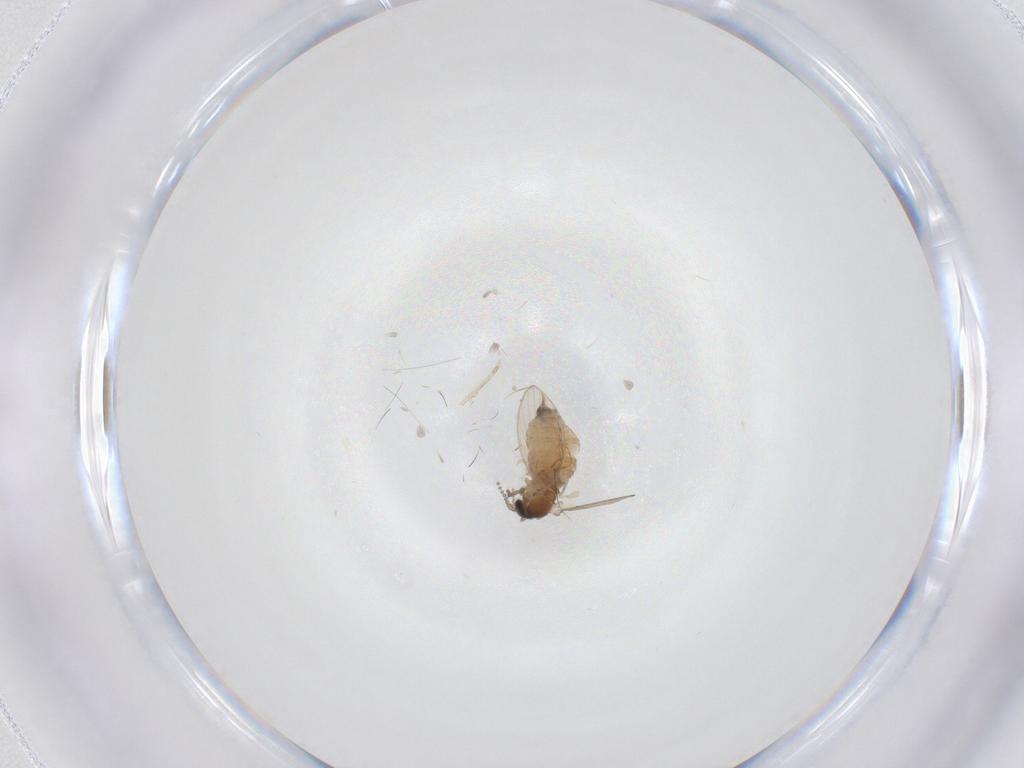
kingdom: Animalia
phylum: Arthropoda
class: Insecta
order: Diptera
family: Psychodidae
